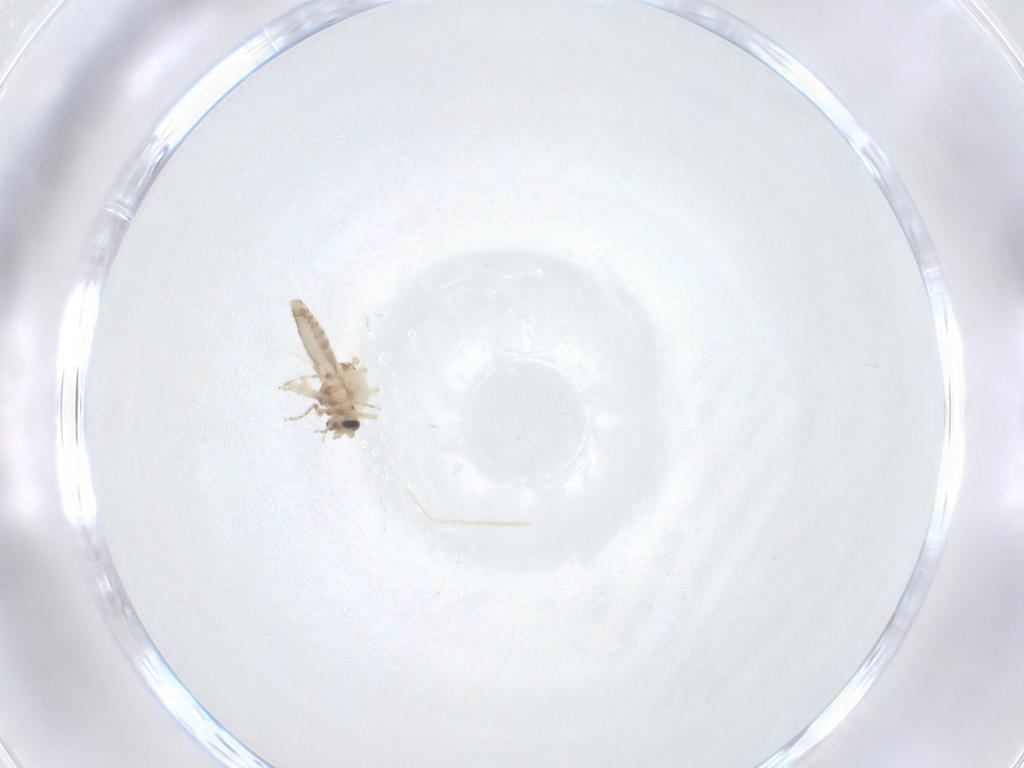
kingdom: Animalia
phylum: Arthropoda
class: Insecta
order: Diptera
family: Ceratopogonidae
